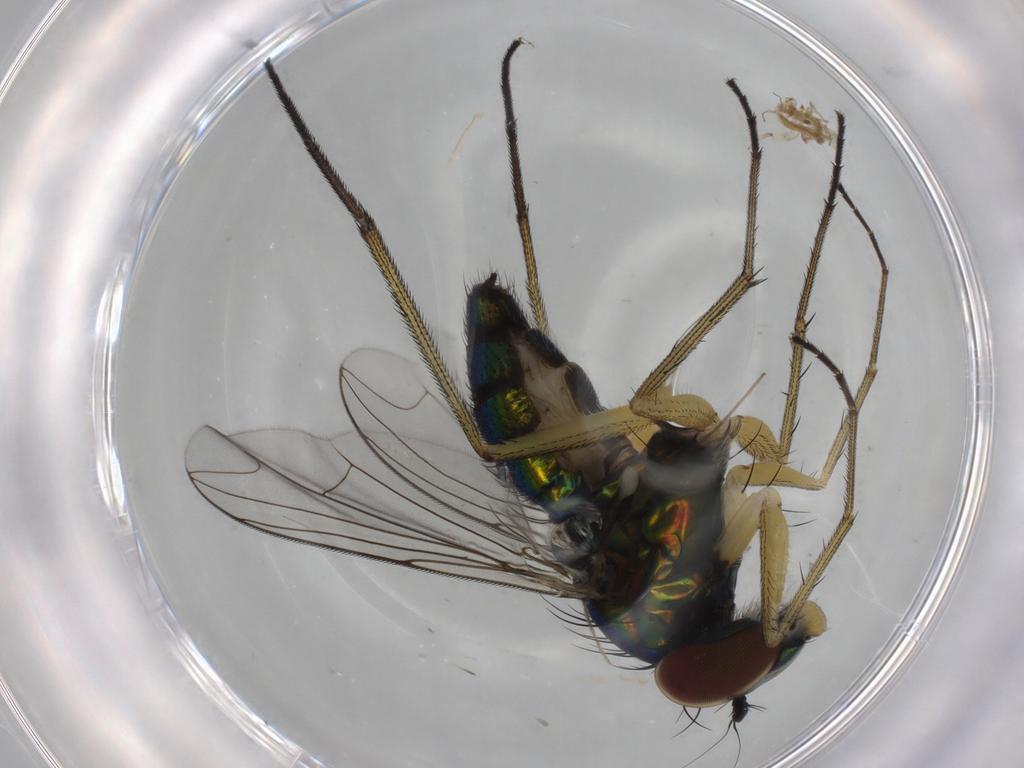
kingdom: Animalia
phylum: Arthropoda
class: Insecta
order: Diptera
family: Dolichopodidae
